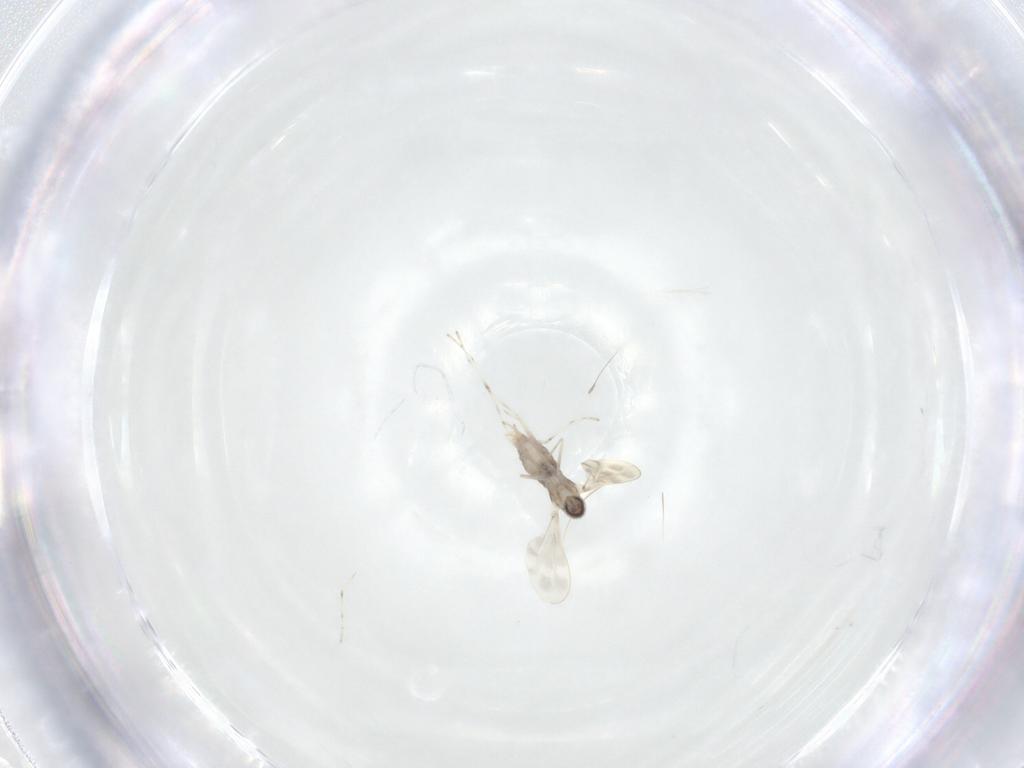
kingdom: Animalia
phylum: Arthropoda
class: Insecta
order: Diptera
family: Cecidomyiidae
